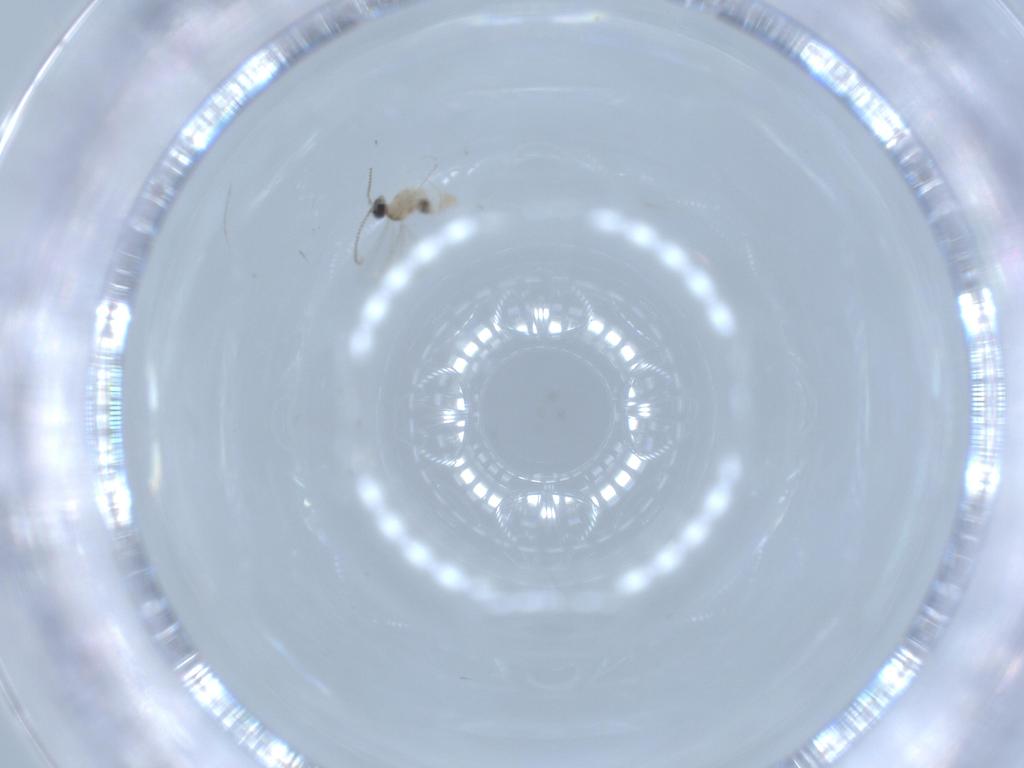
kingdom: Animalia
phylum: Arthropoda
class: Insecta
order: Diptera
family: Cecidomyiidae
